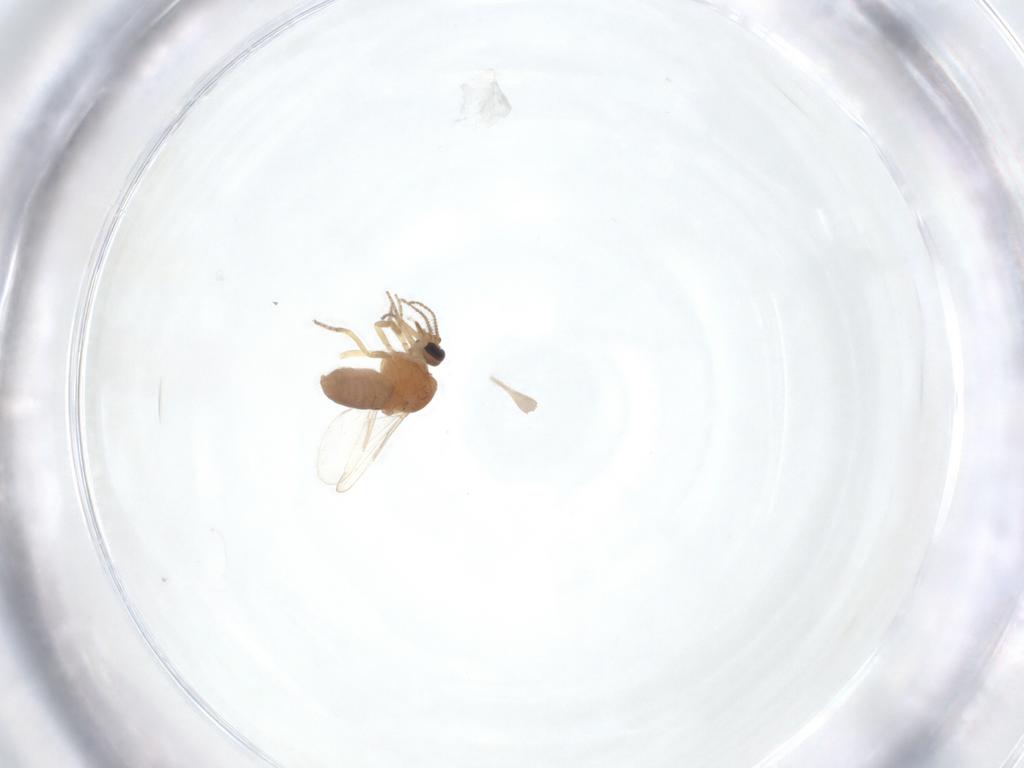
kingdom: Animalia
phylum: Arthropoda
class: Insecta
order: Diptera
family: Ceratopogonidae
